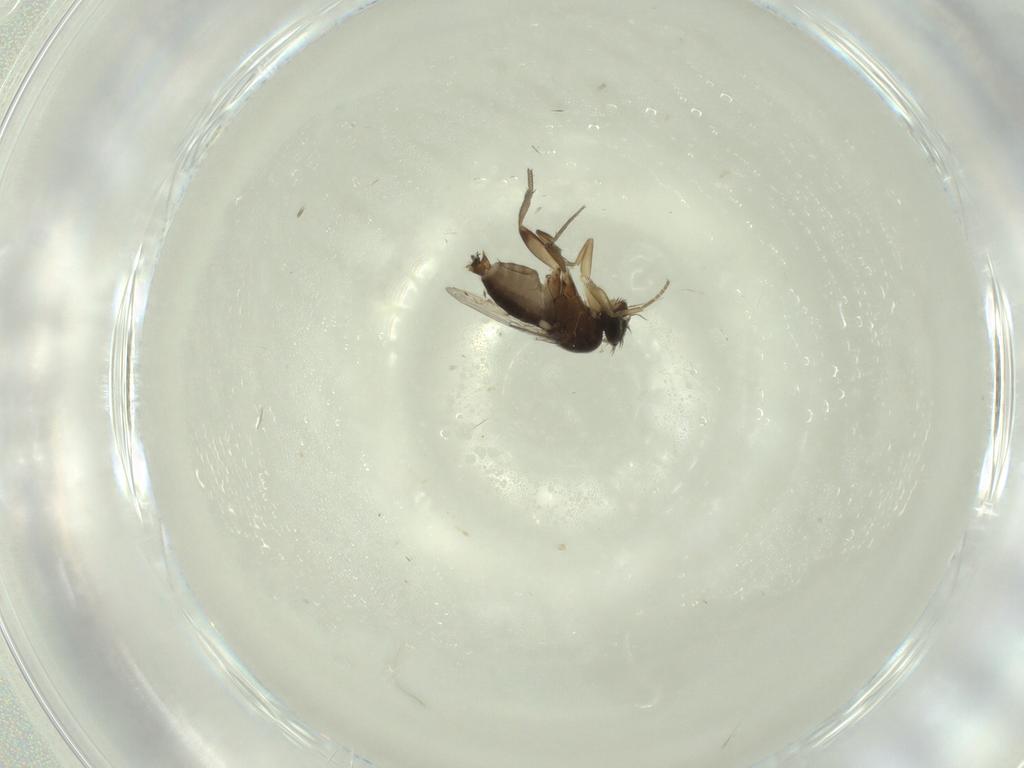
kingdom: Animalia
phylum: Arthropoda
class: Insecta
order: Diptera
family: Phoridae
